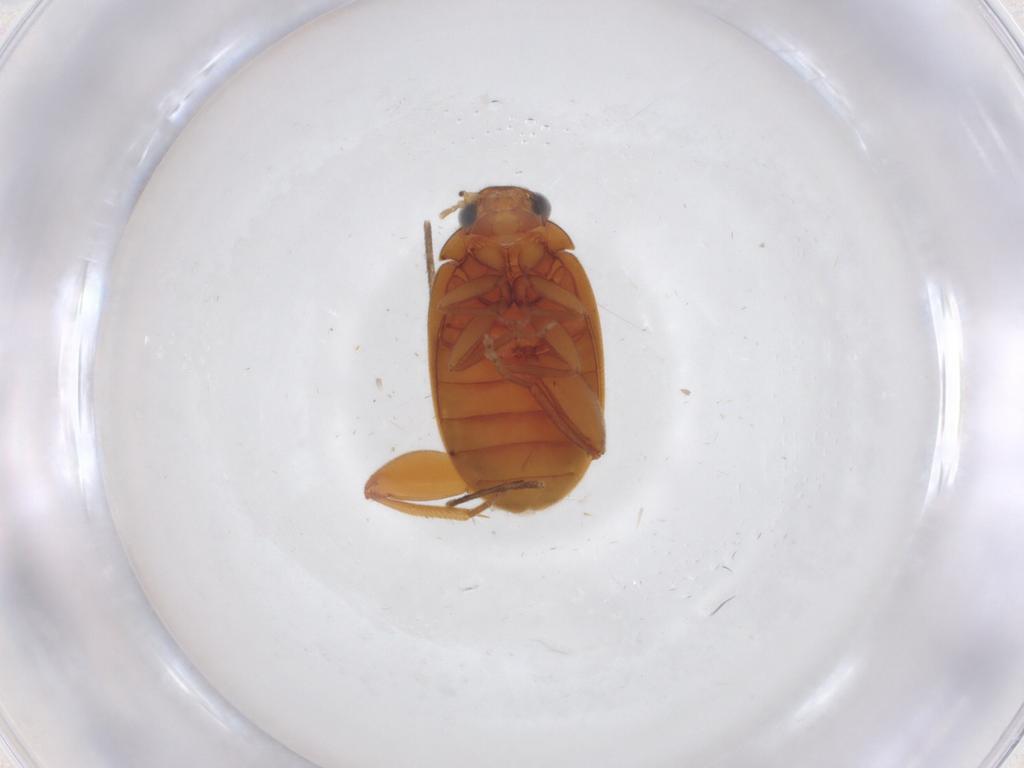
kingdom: Animalia
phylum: Arthropoda
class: Insecta
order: Coleoptera
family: Scirtidae
